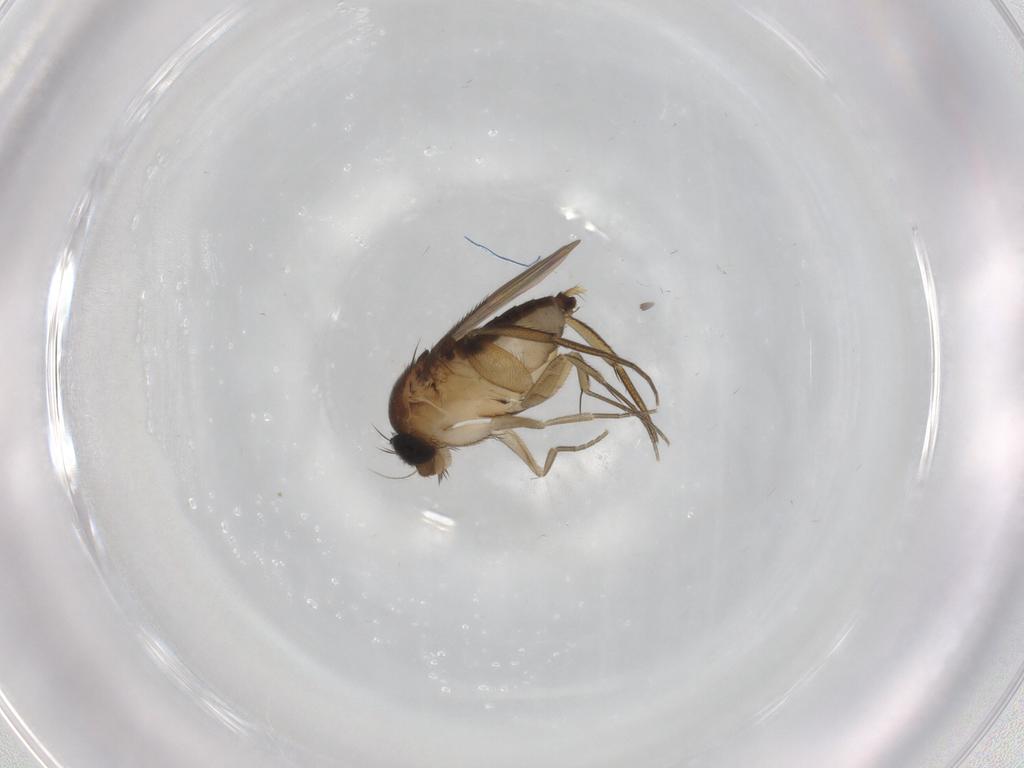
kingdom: Animalia
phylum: Arthropoda
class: Insecta
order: Diptera
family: Phoridae
